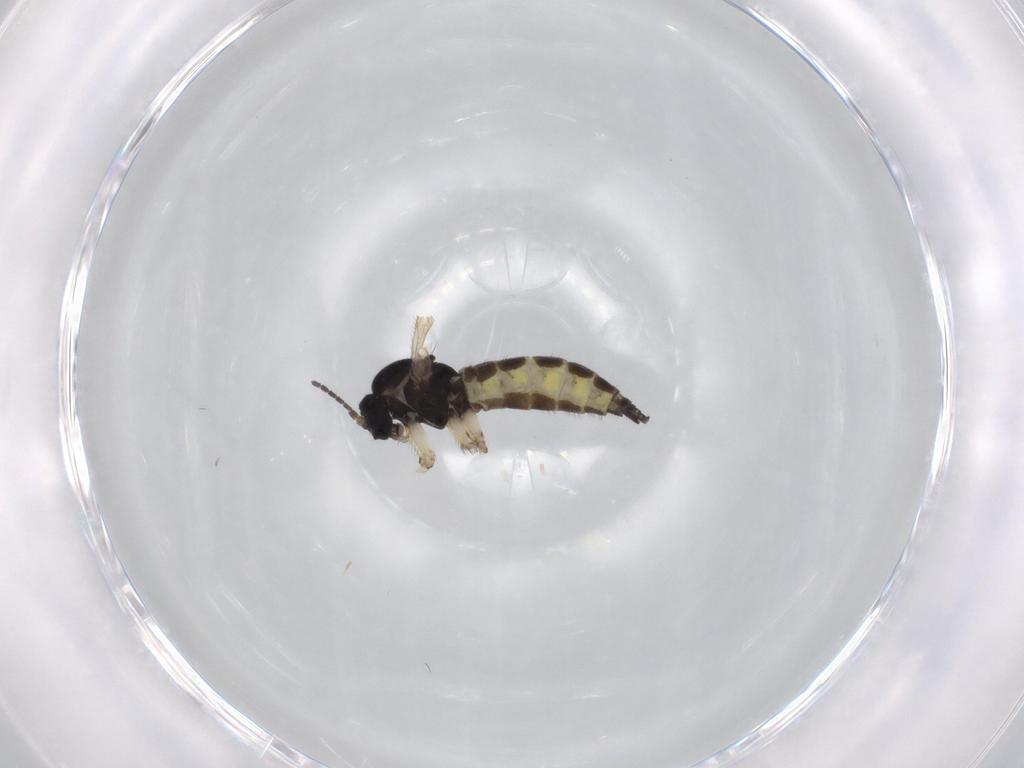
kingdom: Animalia
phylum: Arthropoda
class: Insecta
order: Diptera
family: Sciaridae
